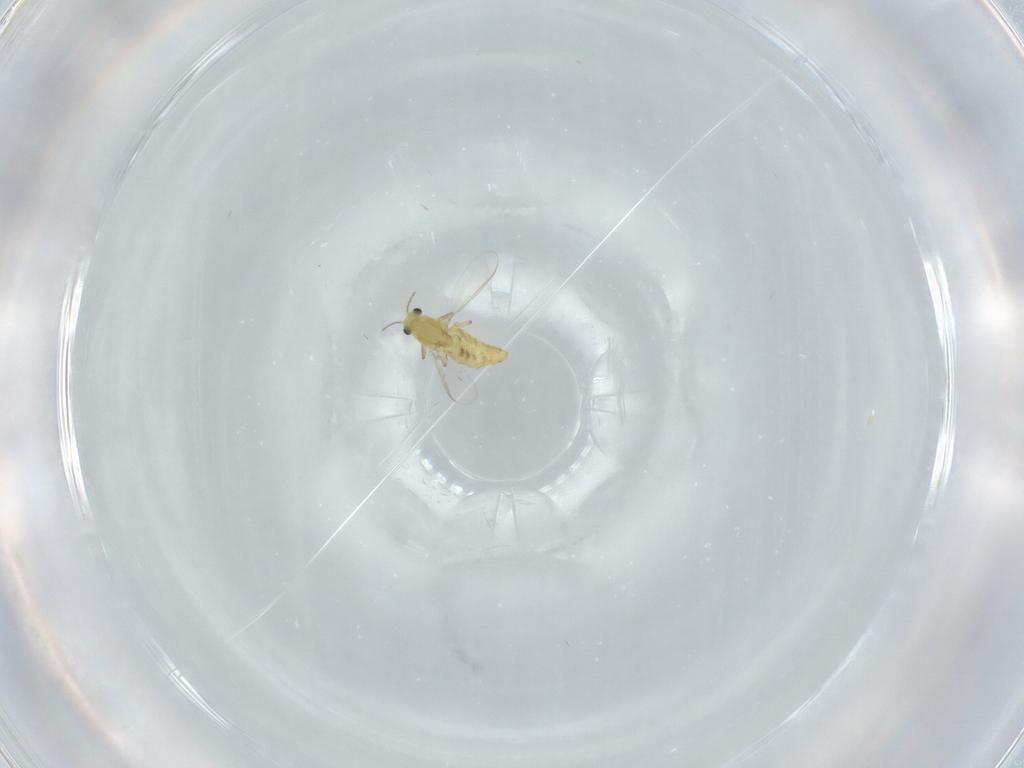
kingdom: Animalia
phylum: Arthropoda
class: Insecta
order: Diptera
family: Chironomidae
